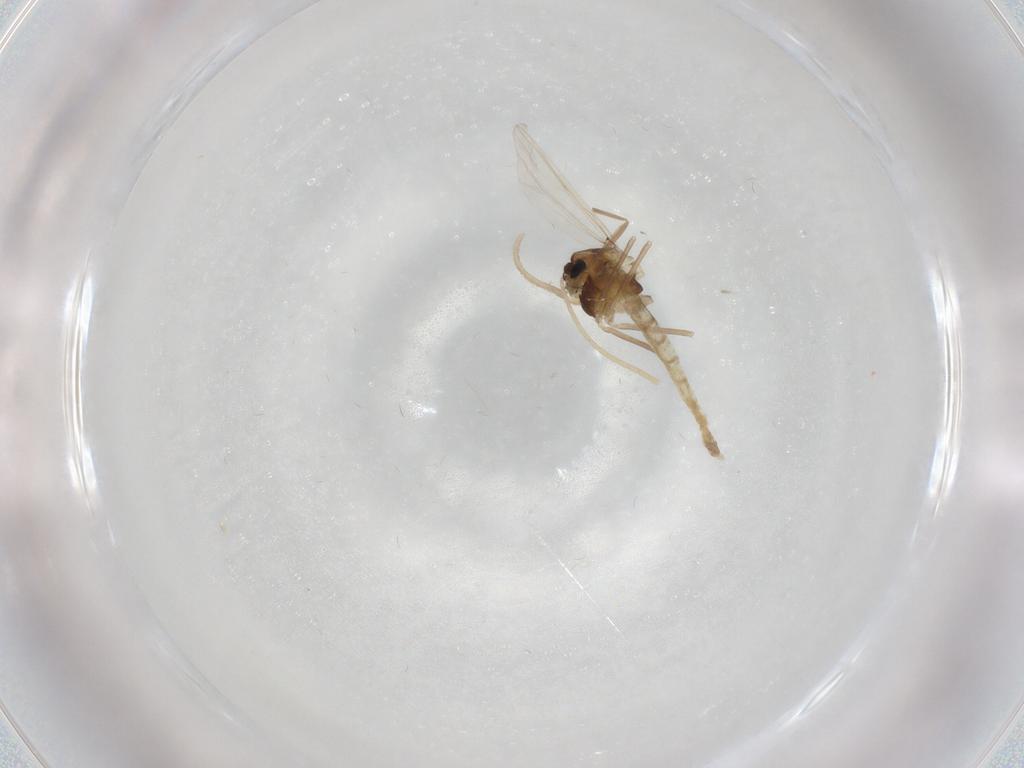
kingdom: Animalia
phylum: Arthropoda
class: Insecta
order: Diptera
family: Chironomidae
